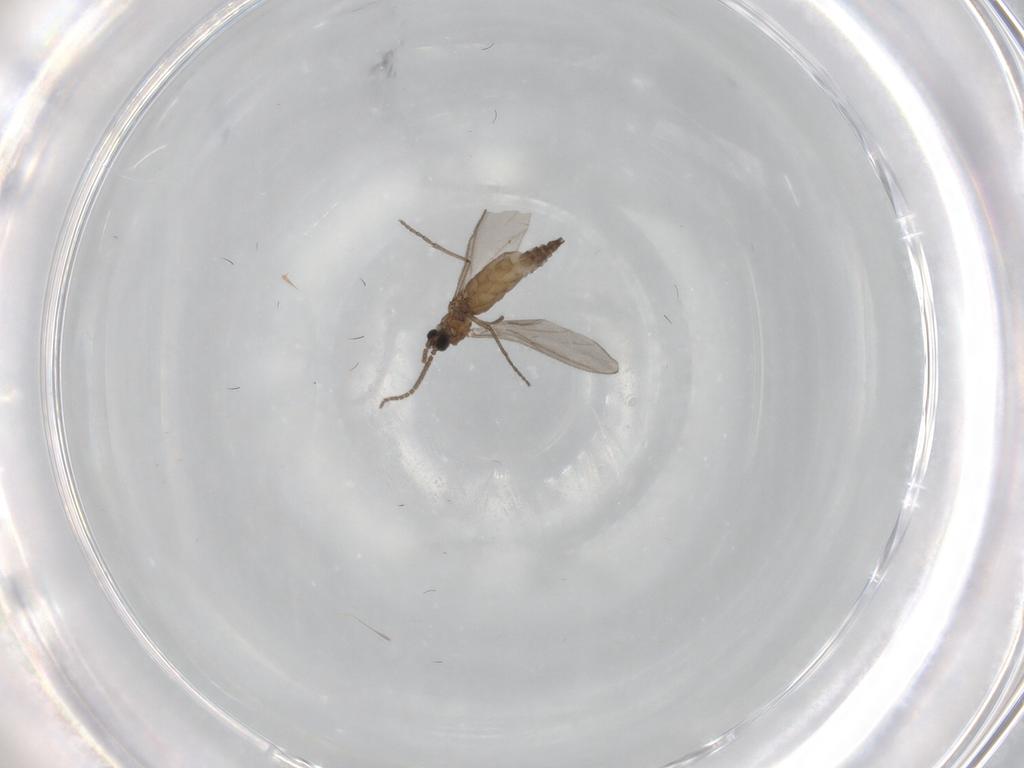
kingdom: Animalia
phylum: Arthropoda
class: Insecta
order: Diptera
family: Sciaridae
